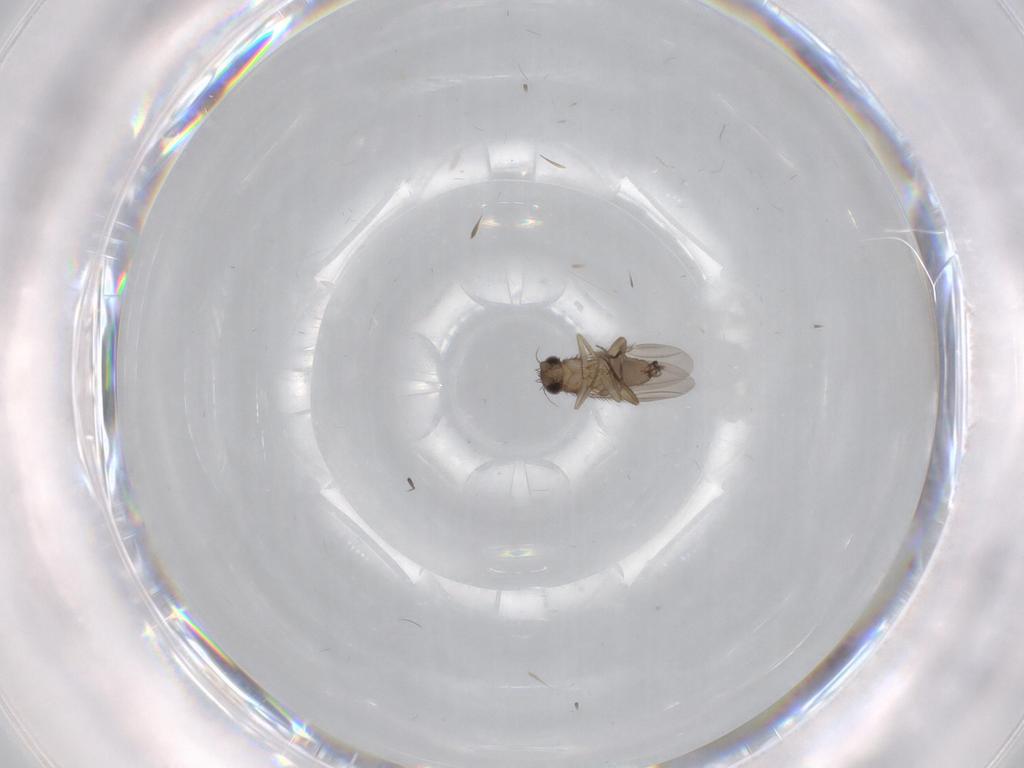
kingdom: Animalia
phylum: Arthropoda
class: Insecta
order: Diptera
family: Phoridae
